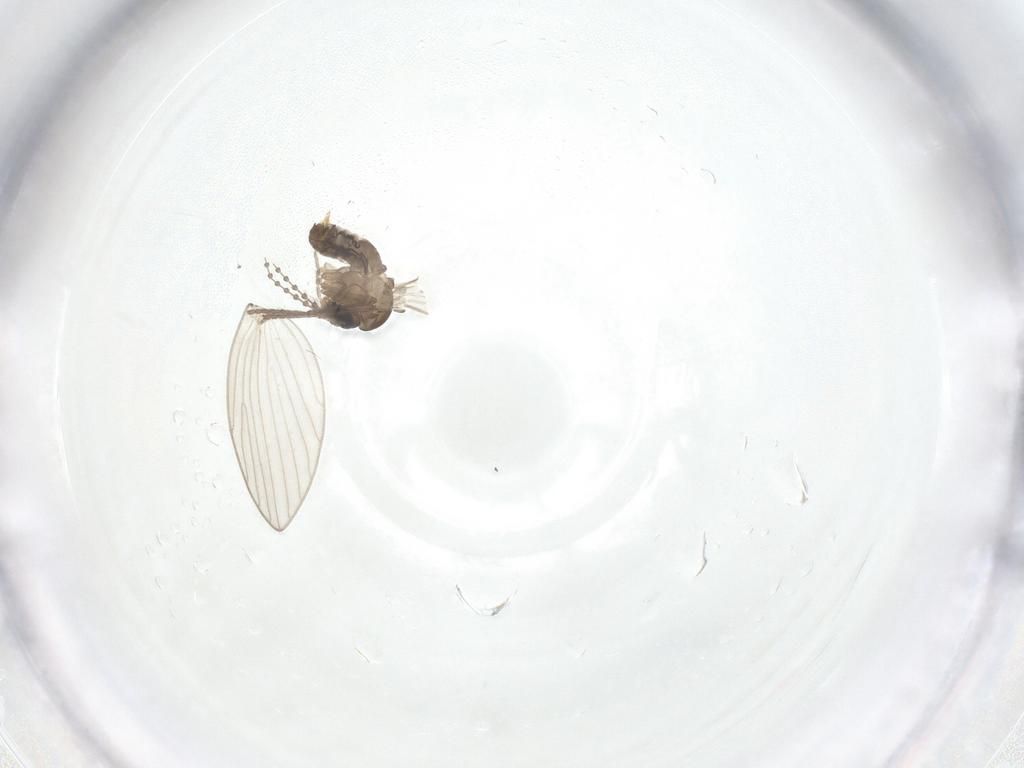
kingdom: Animalia
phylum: Arthropoda
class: Insecta
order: Diptera
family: Psychodidae
